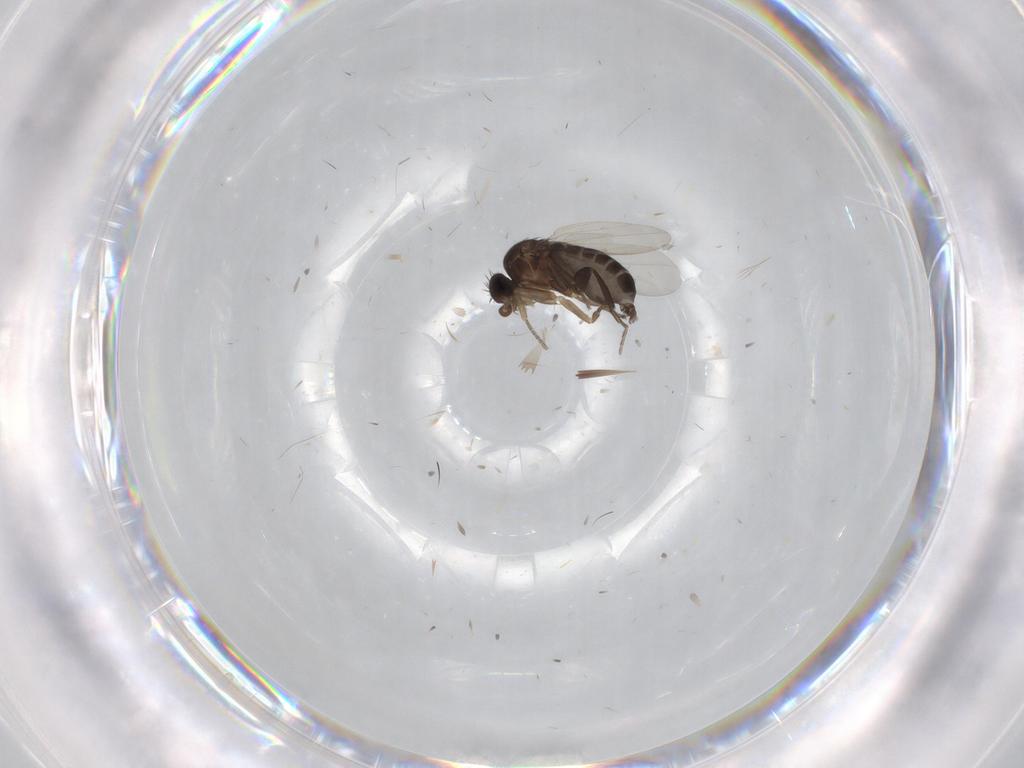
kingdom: Animalia
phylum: Arthropoda
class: Insecta
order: Diptera
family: Phoridae
